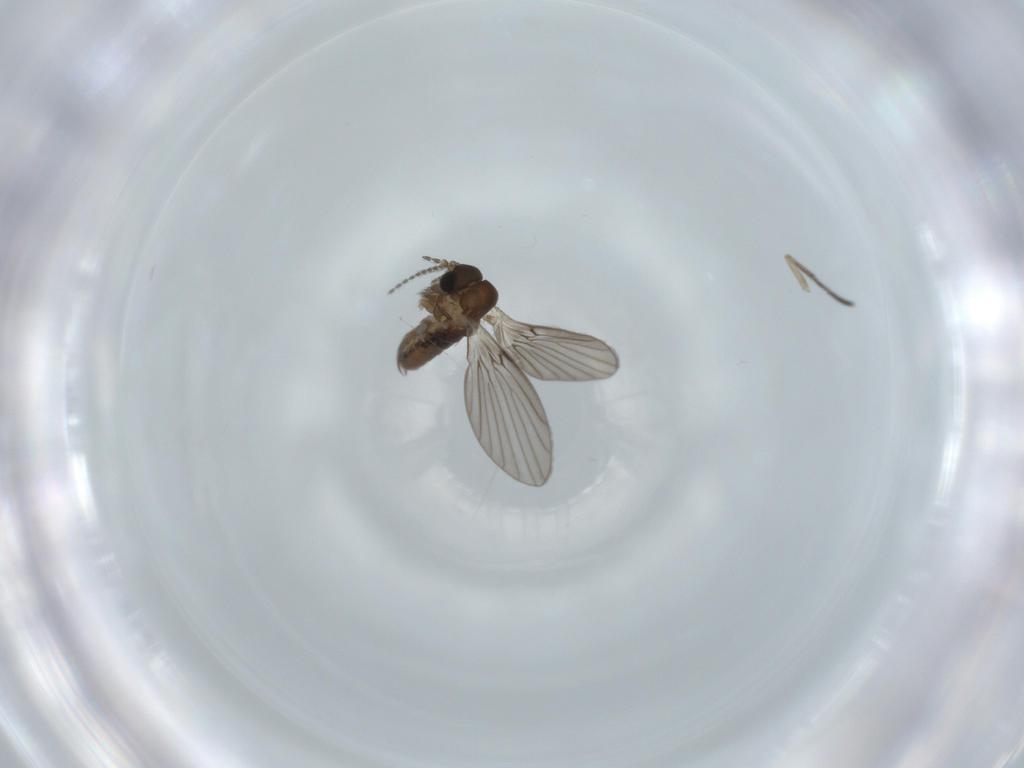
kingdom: Animalia
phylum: Arthropoda
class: Insecta
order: Diptera
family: Psychodidae
